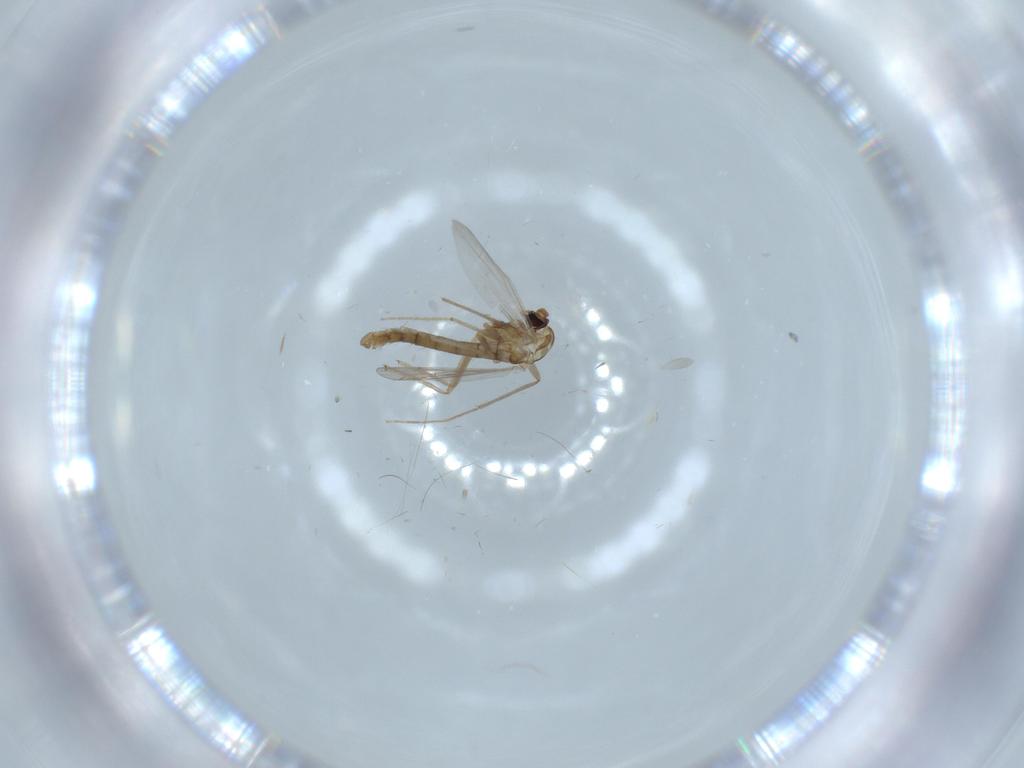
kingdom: Animalia
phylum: Arthropoda
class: Insecta
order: Diptera
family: Chironomidae
